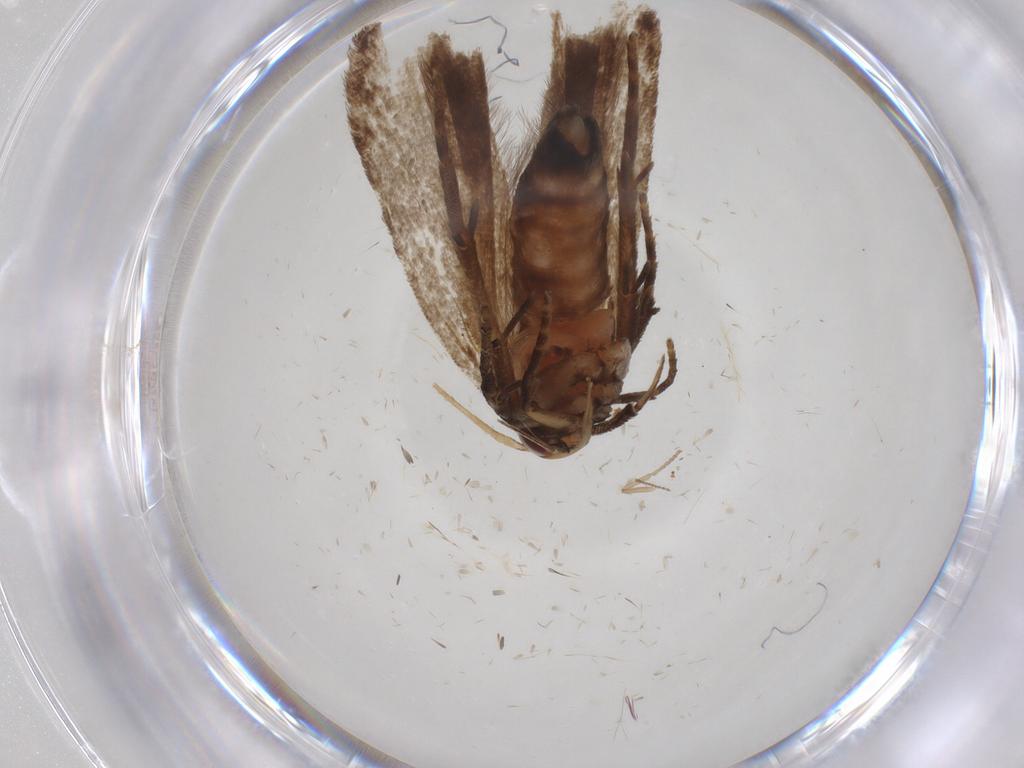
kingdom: Animalia
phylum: Arthropoda
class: Insecta
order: Lepidoptera
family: Gelechiidae
